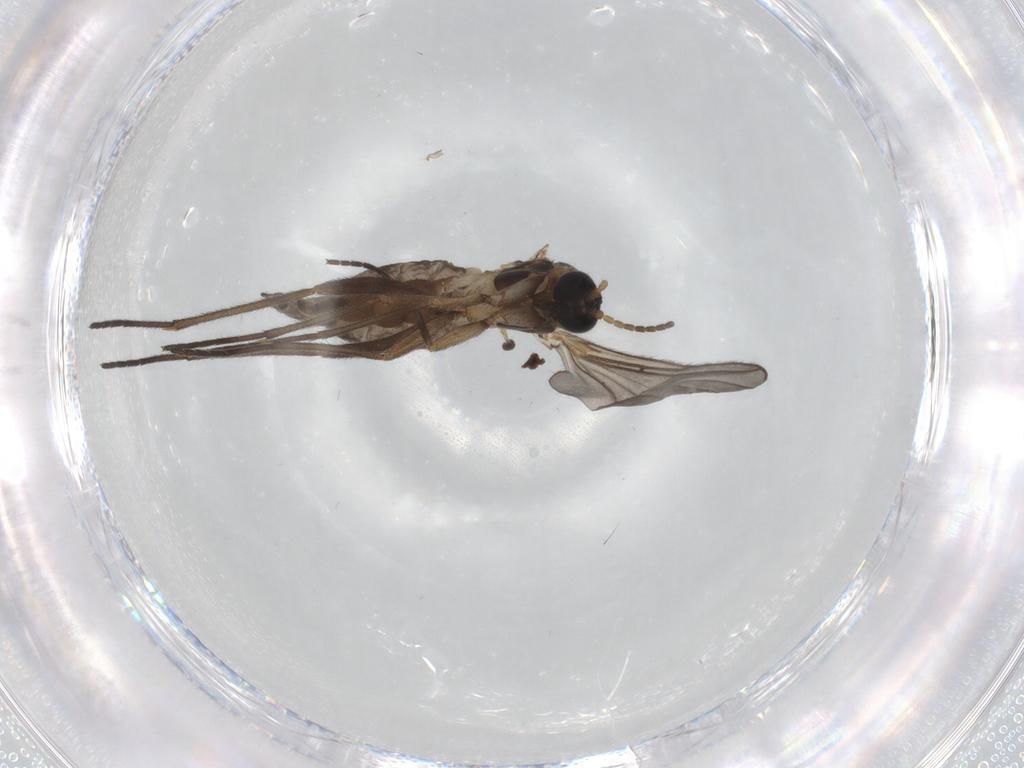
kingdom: Animalia
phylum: Arthropoda
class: Insecta
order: Diptera
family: Sciaridae
